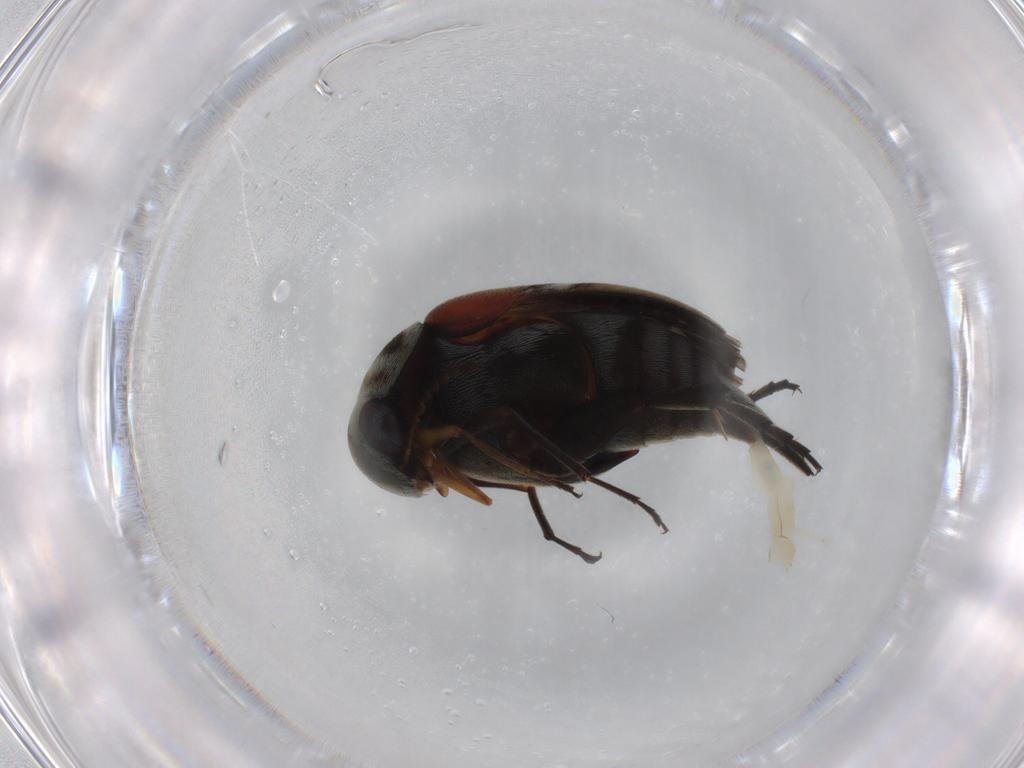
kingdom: Animalia
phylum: Arthropoda
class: Insecta
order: Coleoptera
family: Mordellidae
